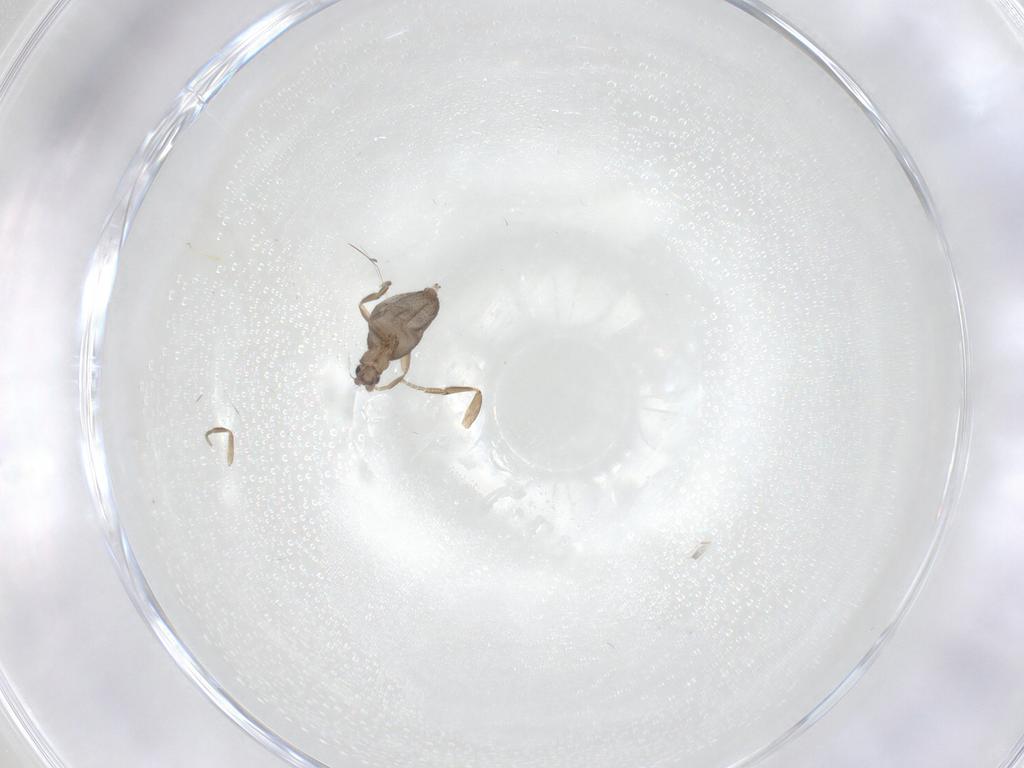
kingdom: Animalia
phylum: Arthropoda
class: Insecta
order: Diptera
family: Phoridae
